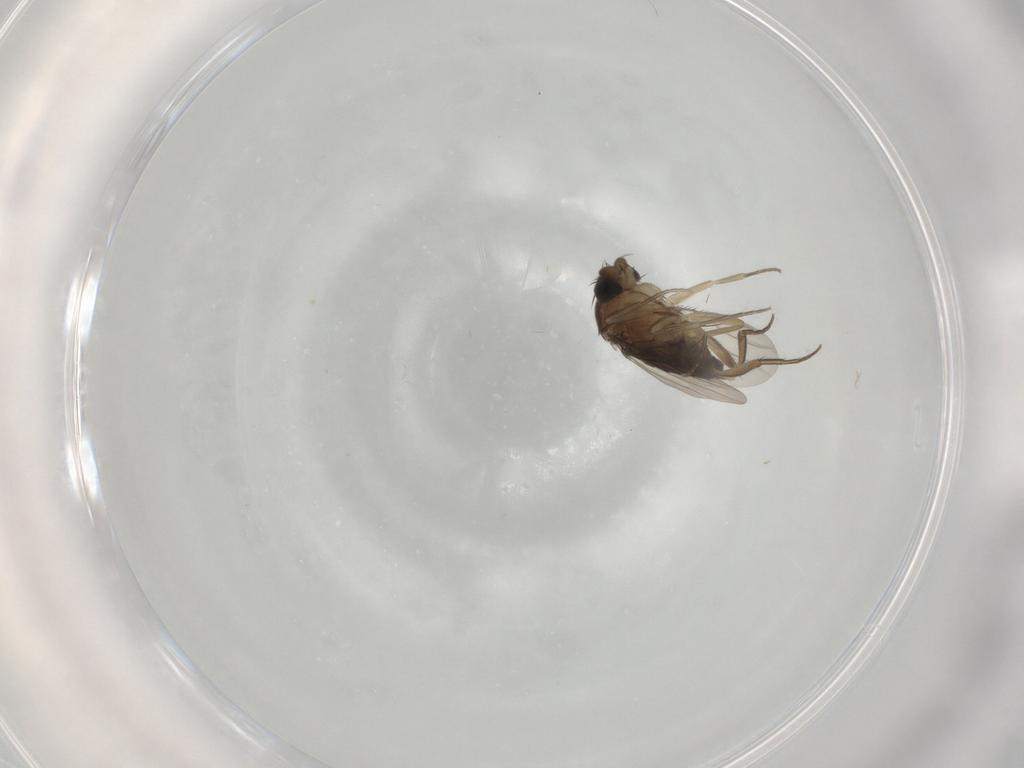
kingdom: Animalia
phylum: Arthropoda
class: Insecta
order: Diptera
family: Phoridae
